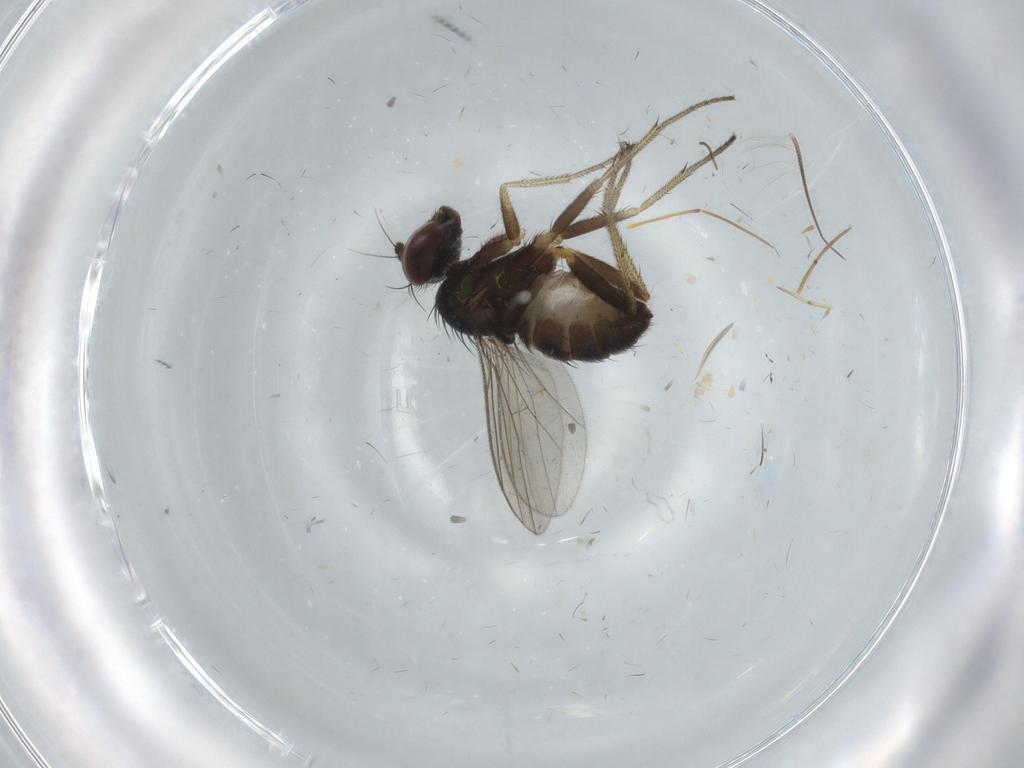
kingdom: Animalia
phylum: Arthropoda
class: Insecta
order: Diptera
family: Dolichopodidae
